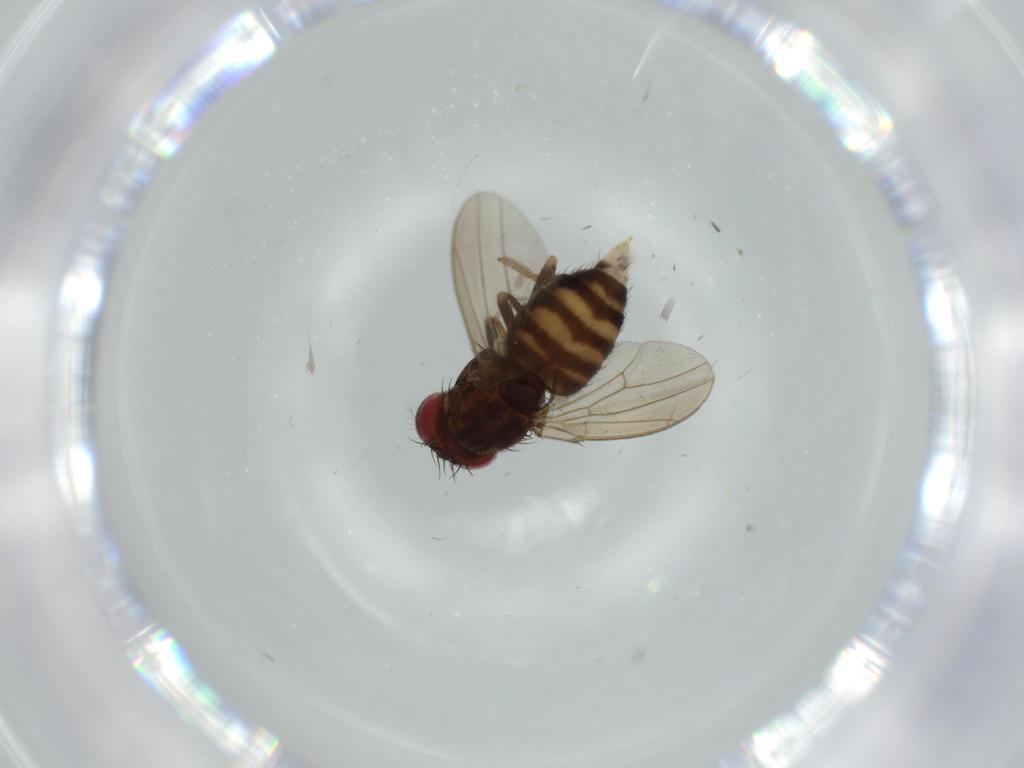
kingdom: Animalia
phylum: Arthropoda
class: Insecta
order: Diptera
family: Drosophilidae
